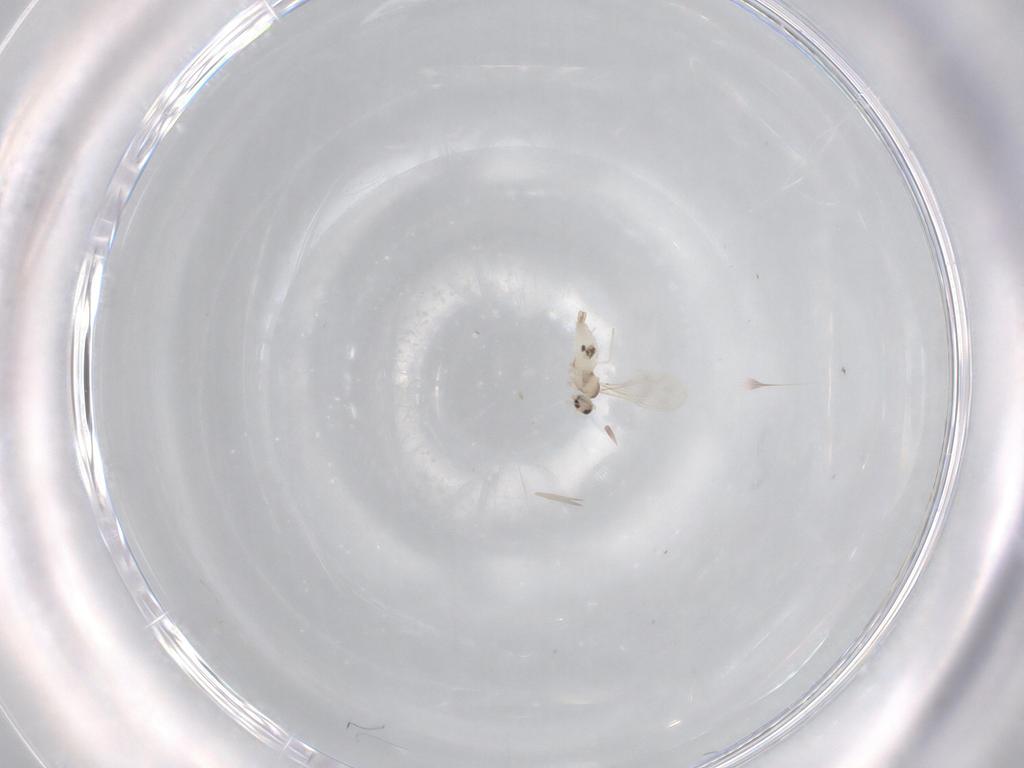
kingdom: Animalia
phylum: Arthropoda
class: Insecta
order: Diptera
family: Cecidomyiidae
